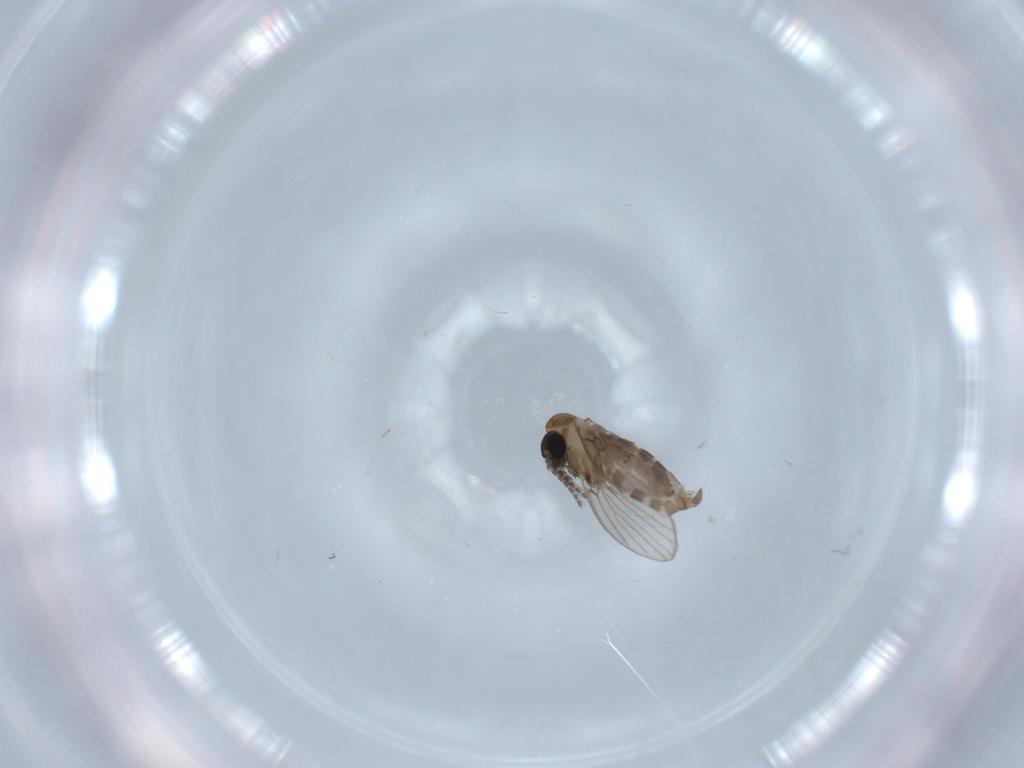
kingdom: Animalia
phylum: Arthropoda
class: Insecta
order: Diptera
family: Psychodidae
